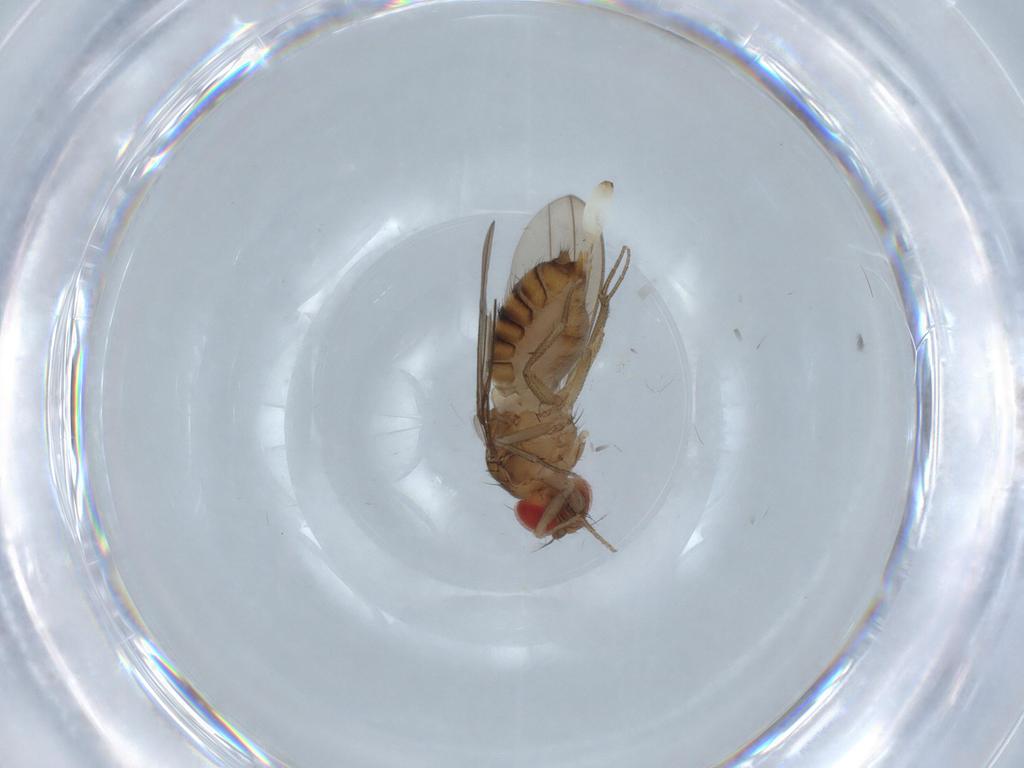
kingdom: Animalia
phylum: Arthropoda
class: Insecta
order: Diptera
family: Drosophilidae
